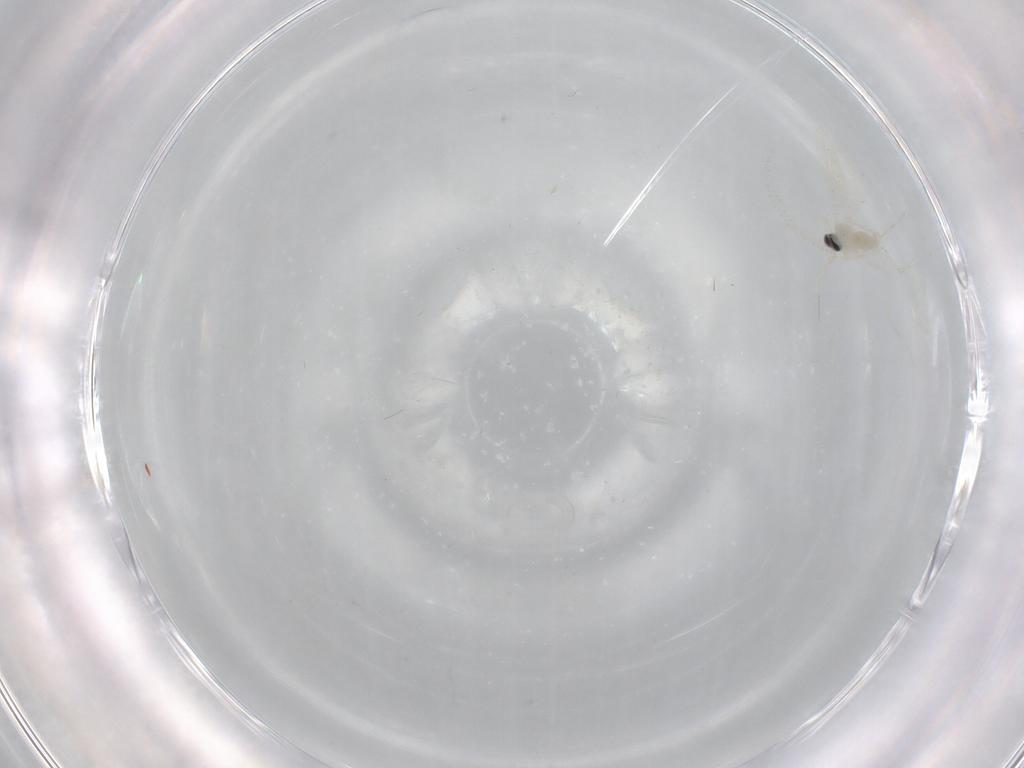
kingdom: Animalia
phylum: Arthropoda
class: Insecta
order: Diptera
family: Cecidomyiidae
